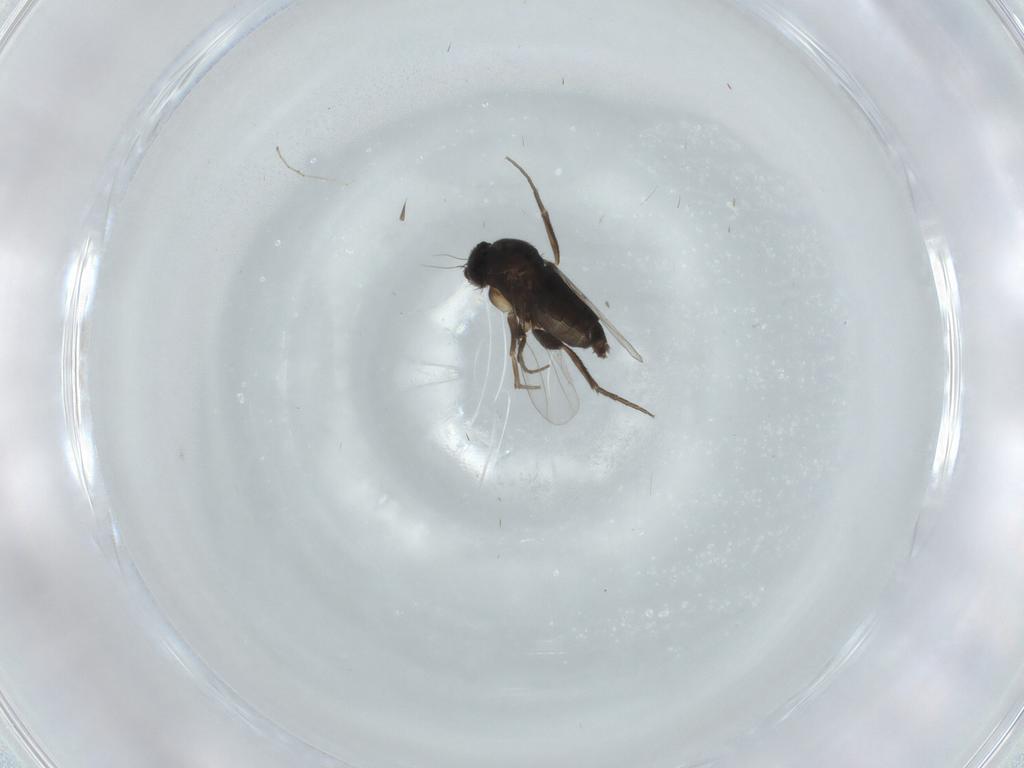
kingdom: Animalia
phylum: Arthropoda
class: Insecta
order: Diptera
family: Phoridae
